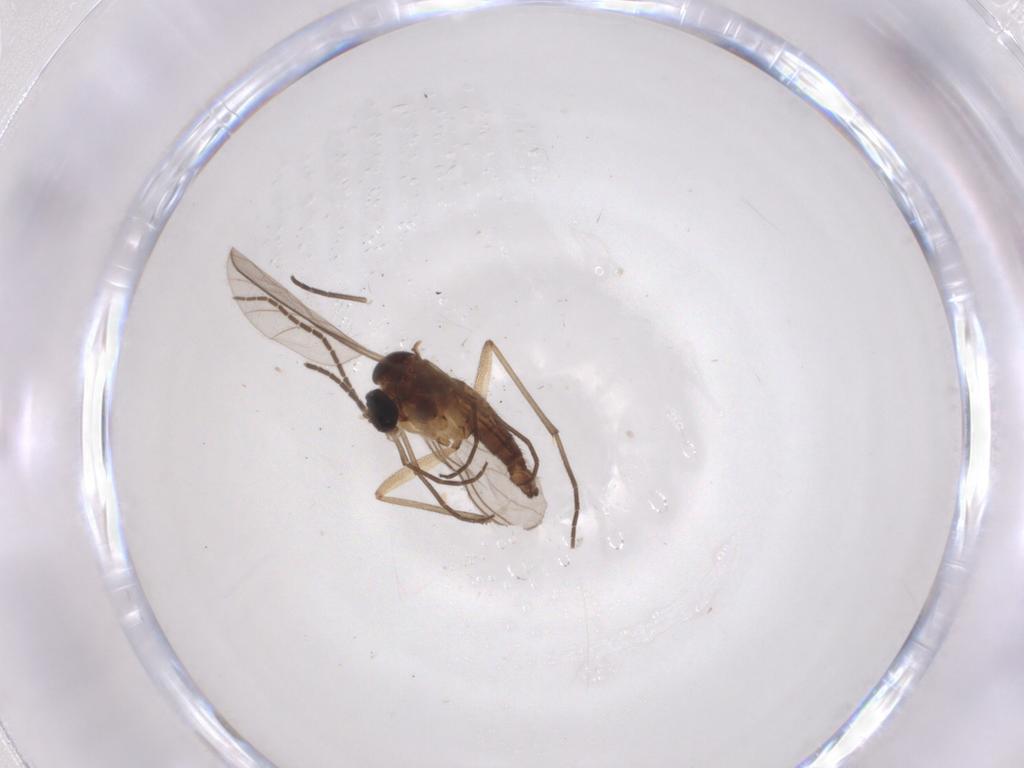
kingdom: Animalia
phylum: Arthropoda
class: Insecta
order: Diptera
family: Sciaridae
